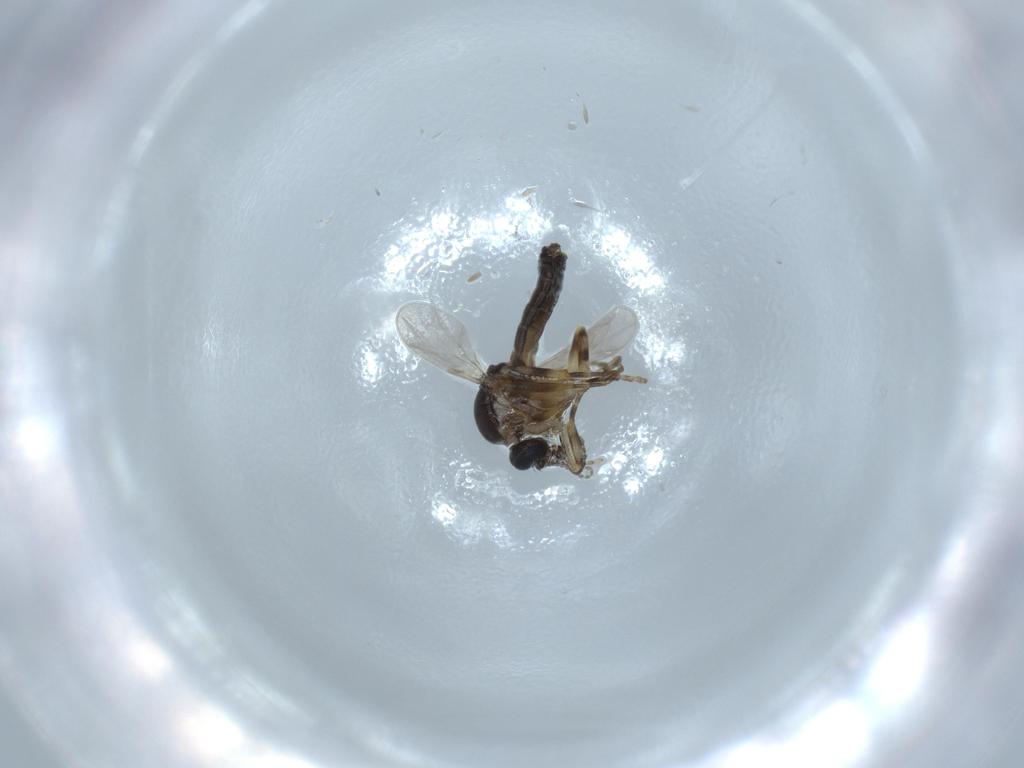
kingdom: Animalia
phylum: Arthropoda
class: Insecta
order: Diptera
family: Ceratopogonidae
